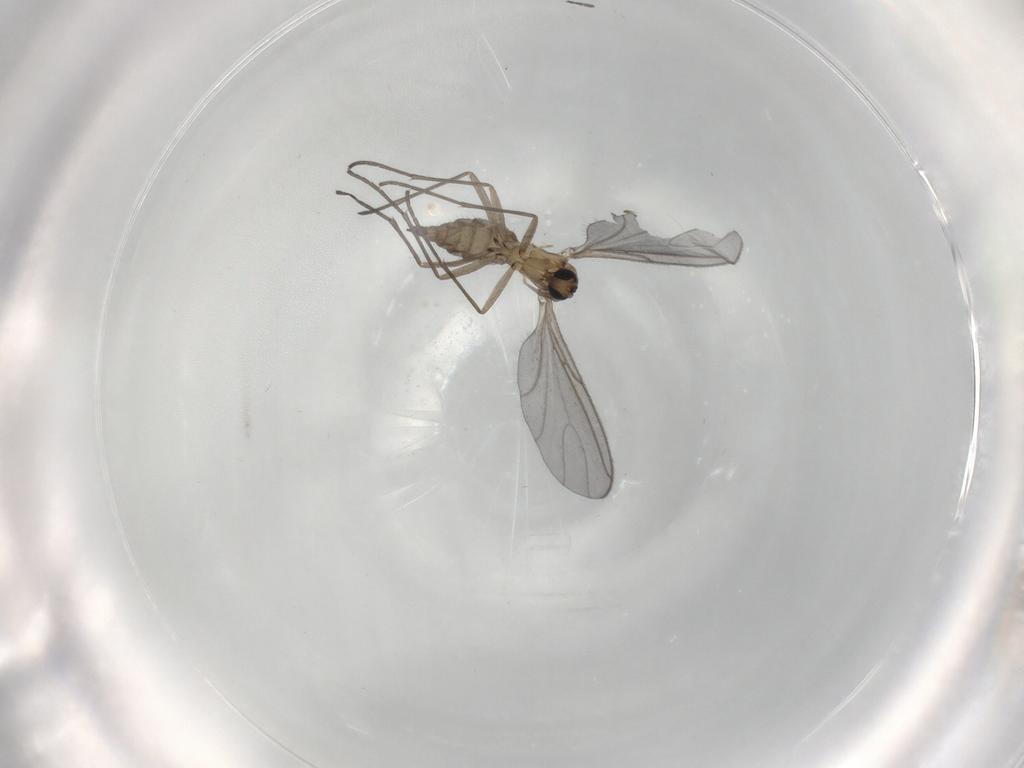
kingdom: Animalia
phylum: Arthropoda
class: Insecta
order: Diptera
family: Sciaridae
